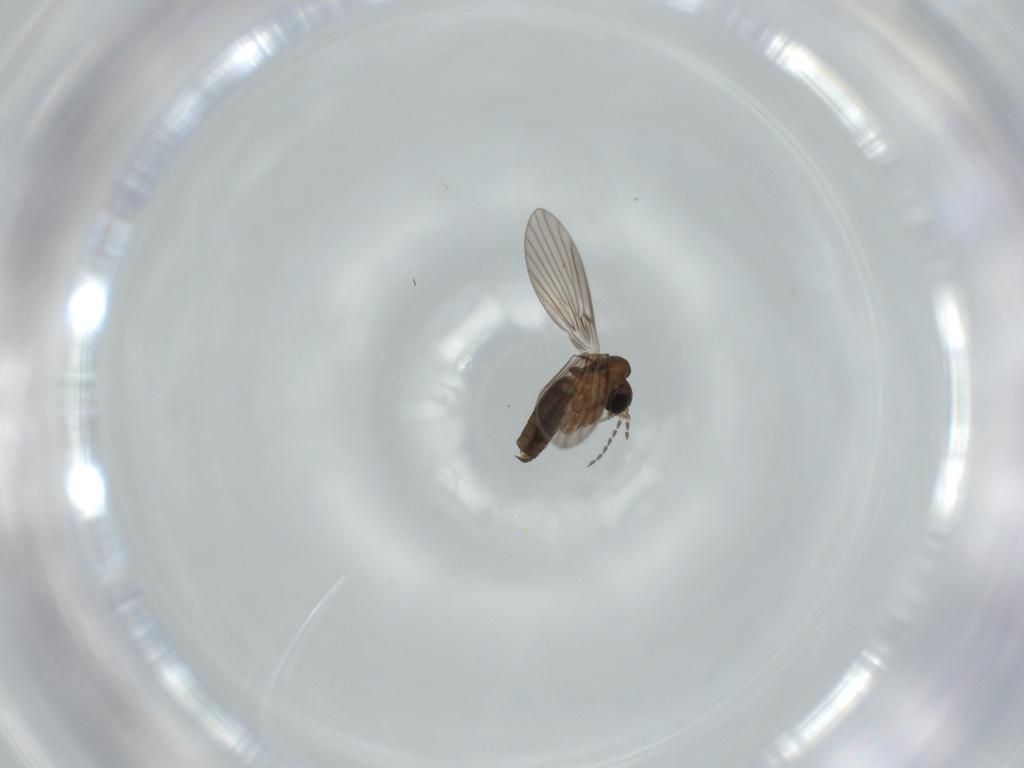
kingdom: Animalia
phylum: Arthropoda
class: Insecta
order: Diptera
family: Psychodidae
